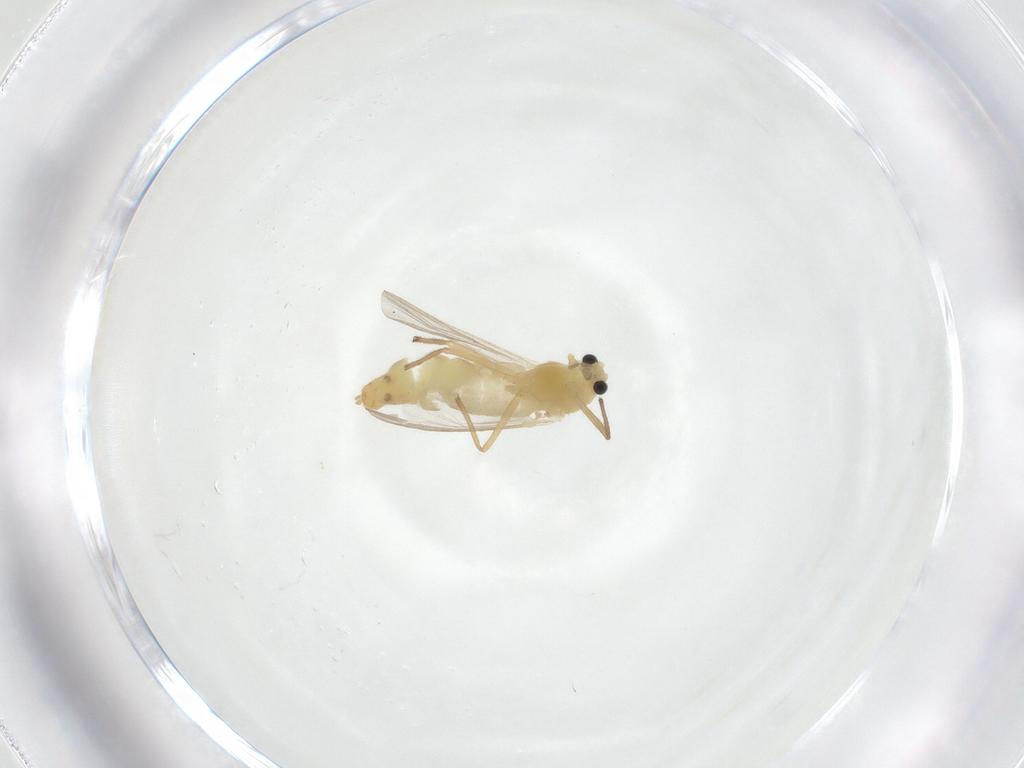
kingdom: Animalia
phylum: Arthropoda
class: Insecta
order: Diptera
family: Chironomidae
